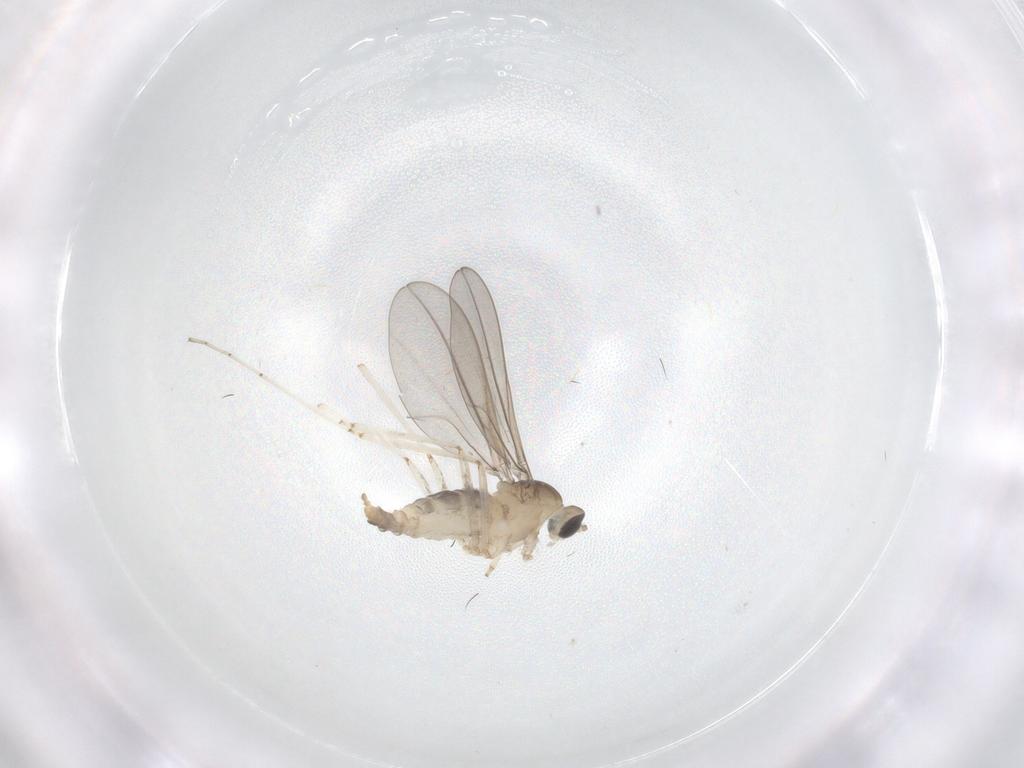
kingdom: Animalia
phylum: Arthropoda
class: Insecta
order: Diptera
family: Cecidomyiidae
